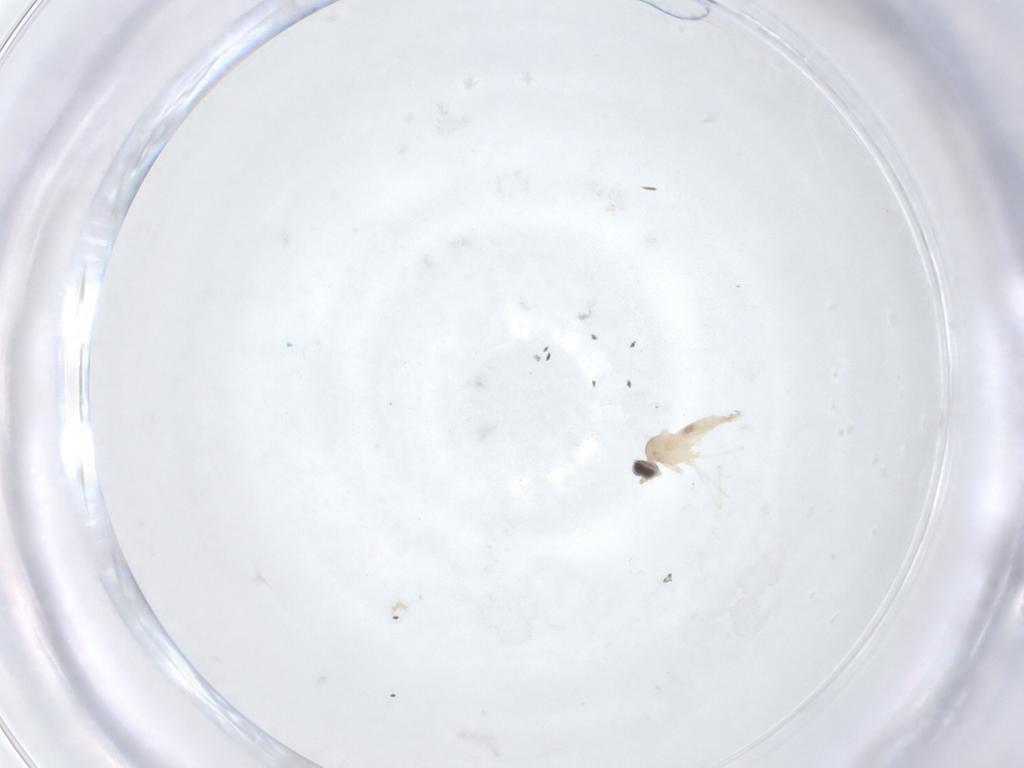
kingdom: Animalia
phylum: Arthropoda
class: Insecta
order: Diptera
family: Cecidomyiidae
